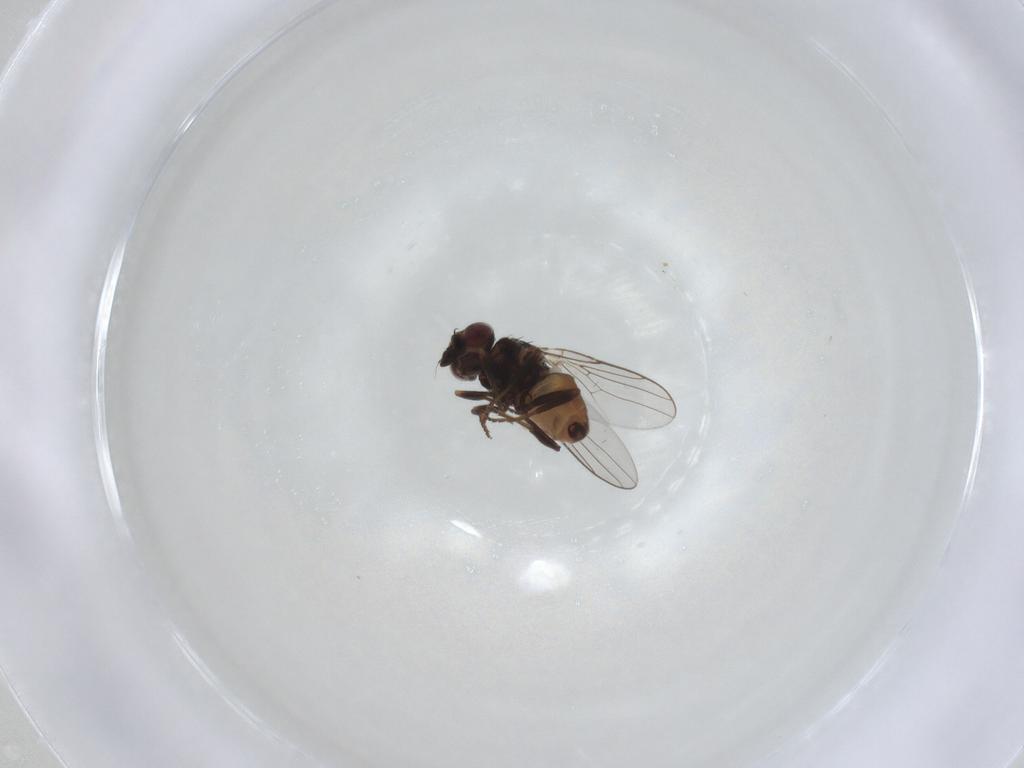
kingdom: Animalia
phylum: Arthropoda
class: Insecta
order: Diptera
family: Chloropidae
